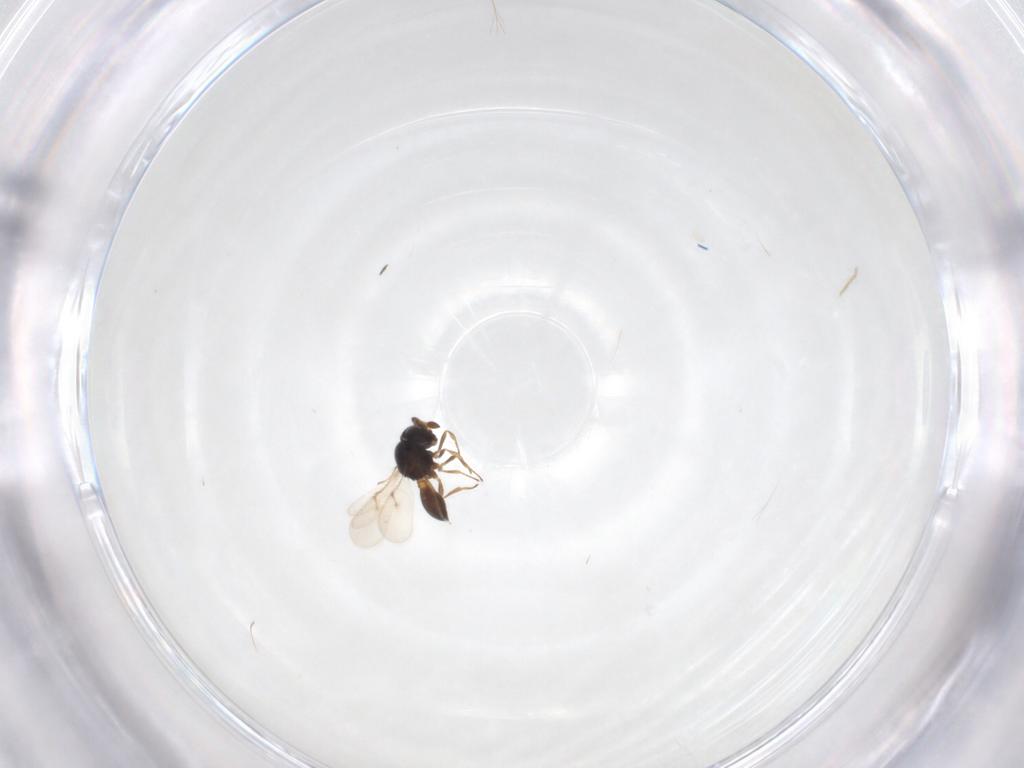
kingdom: Animalia
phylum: Arthropoda
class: Insecta
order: Hymenoptera
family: Scelionidae
